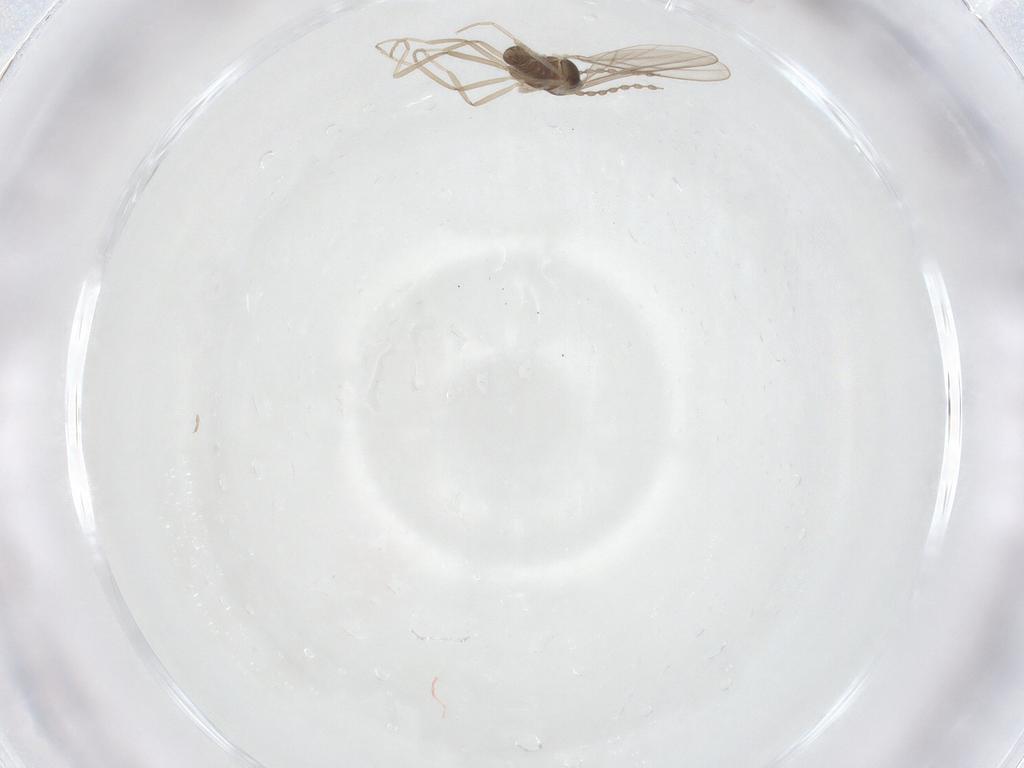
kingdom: Animalia
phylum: Arthropoda
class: Insecta
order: Diptera
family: Cecidomyiidae
